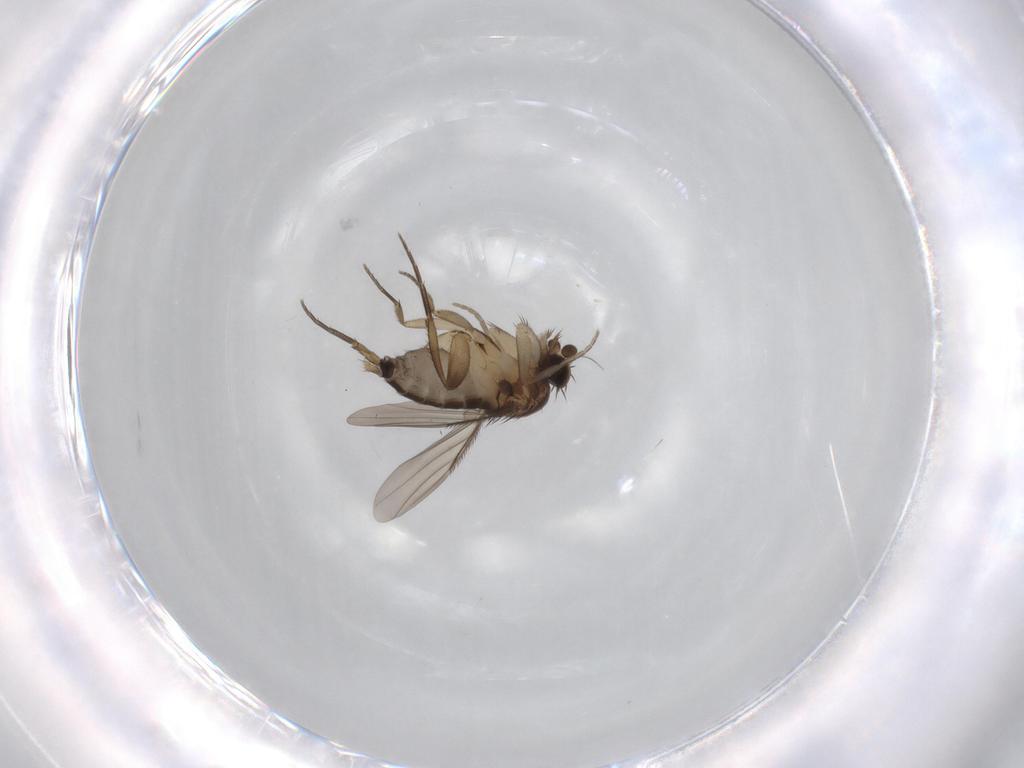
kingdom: Animalia
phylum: Arthropoda
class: Insecta
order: Diptera
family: Phoridae
